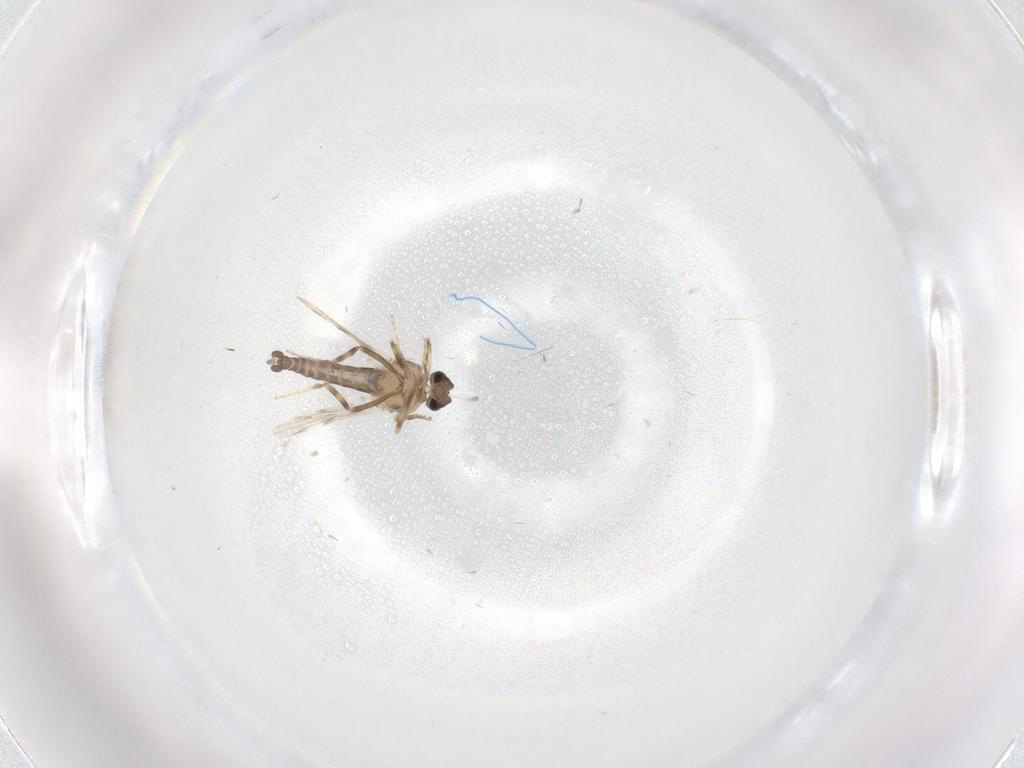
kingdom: Animalia
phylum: Arthropoda
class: Insecta
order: Diptera
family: Ceratopogonidae
